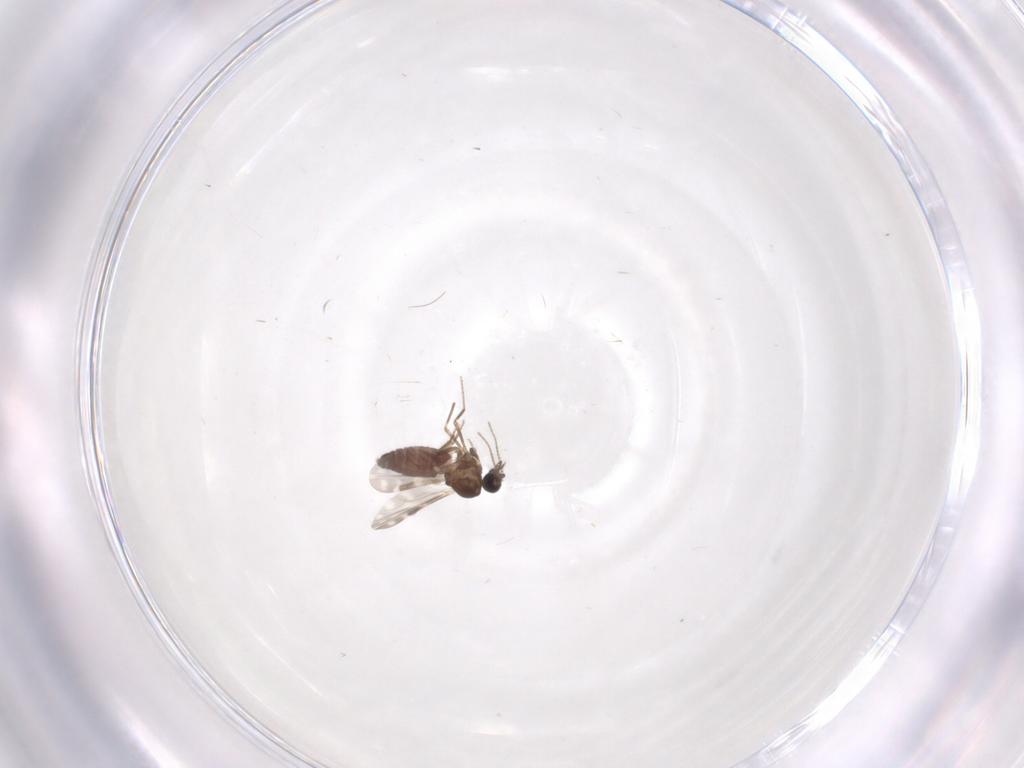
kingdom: Animalia
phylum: Arthropoda
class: Insecta
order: Diptera
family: Ceratopogonidae
